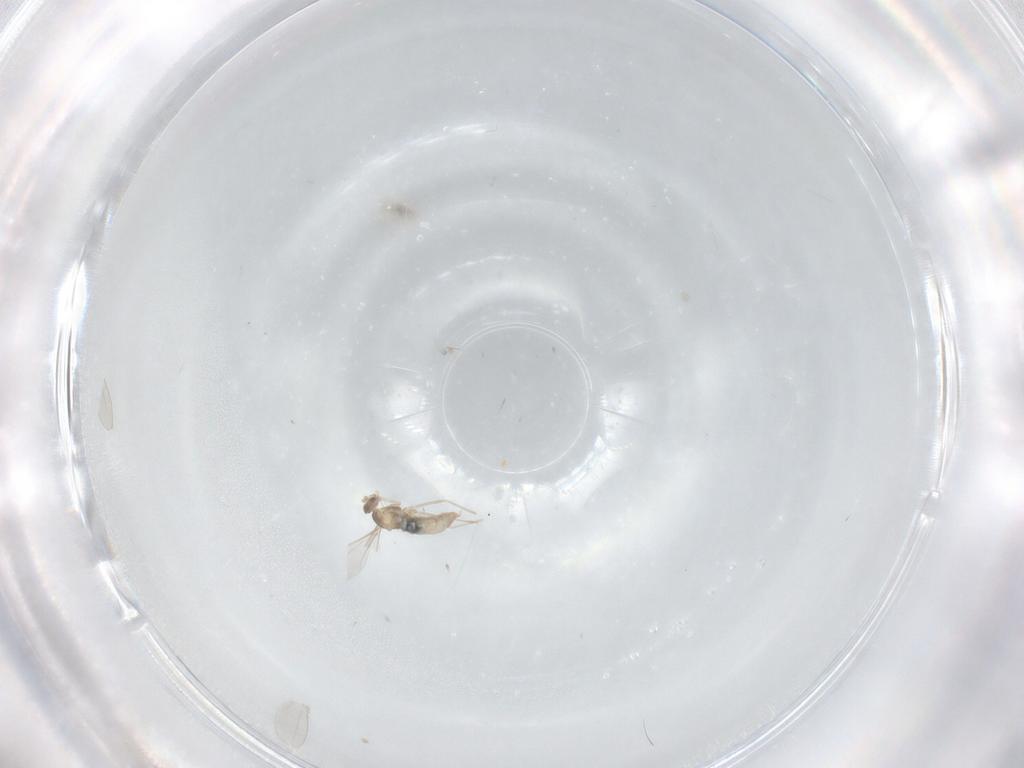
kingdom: Animalia
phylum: Arthropoda
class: Insecta
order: Diptera
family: Cecidomyiidae
